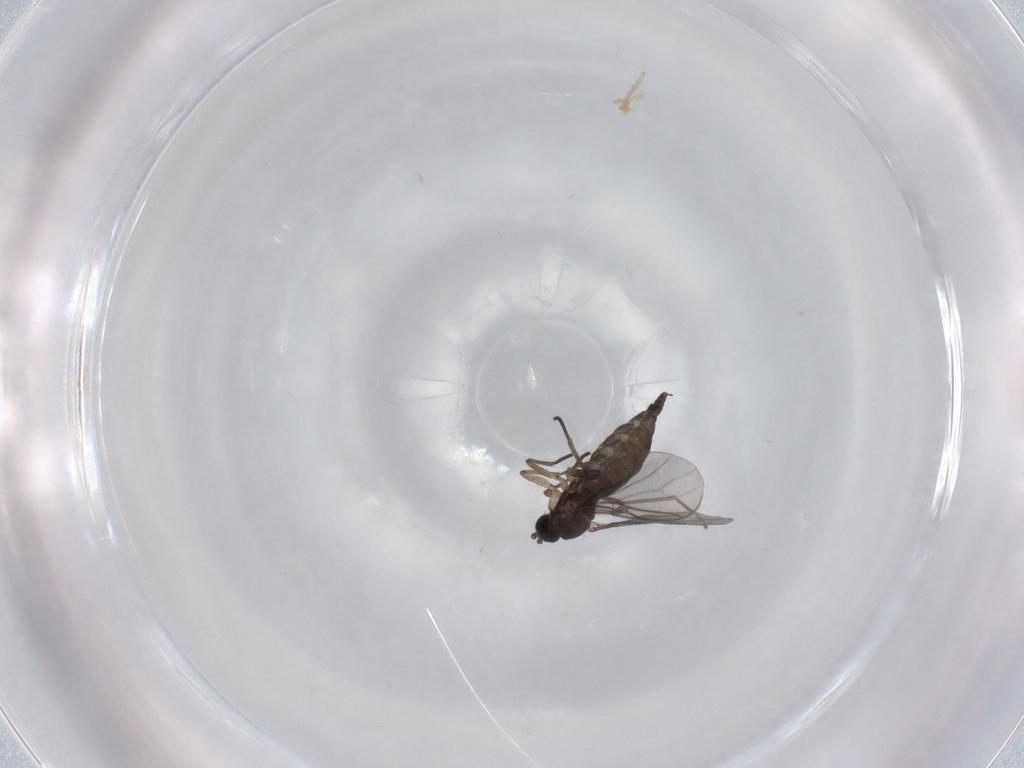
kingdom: Animalia
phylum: Arthropoda
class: Insecta
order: Diptera
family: Sciaridae
